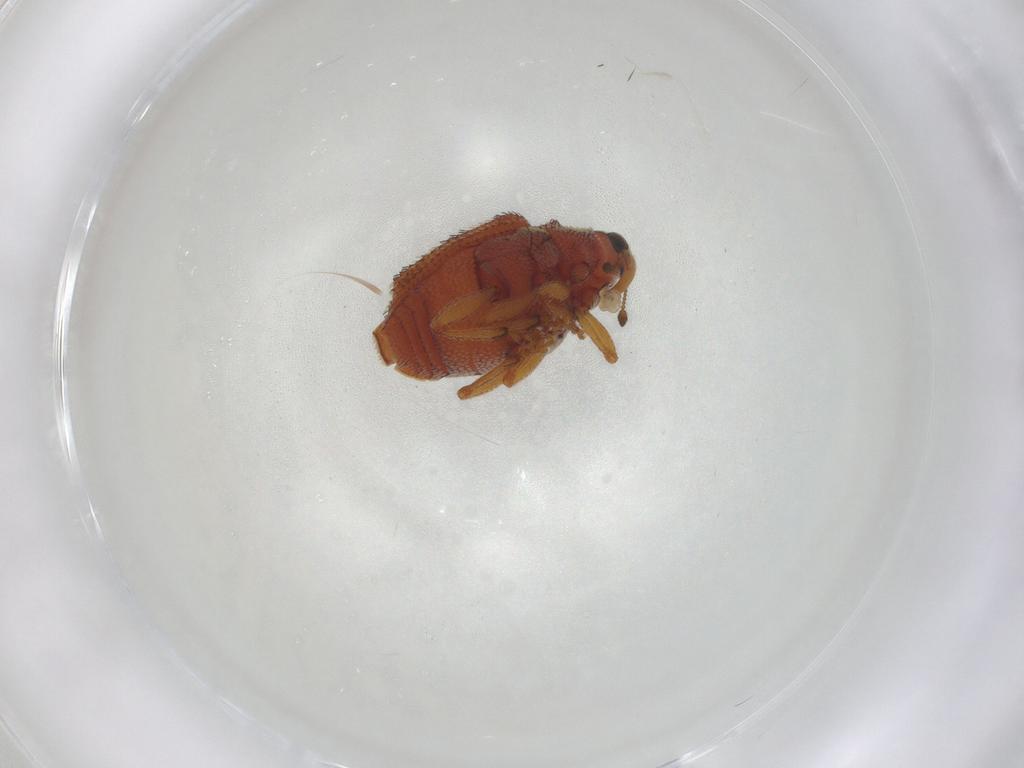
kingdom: Animalia
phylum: Arthropoda
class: Insecta
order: Coleoptera
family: Curculionidae
